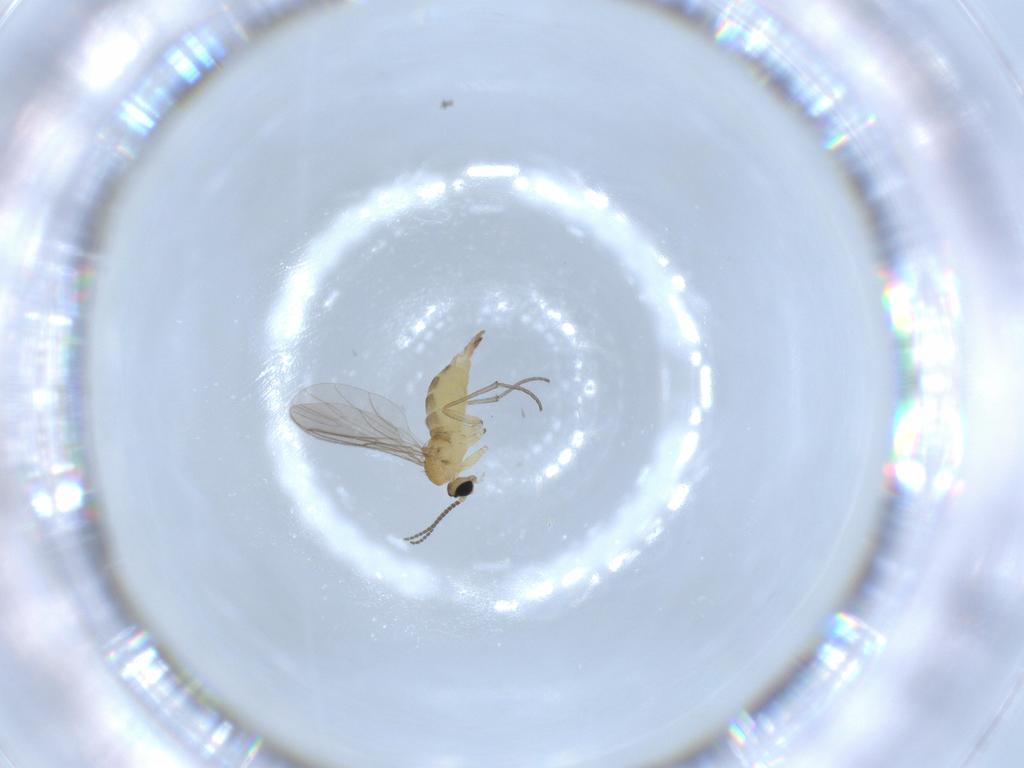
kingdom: Animalia
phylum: Arthropoda
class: Insecta
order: Diptera
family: Sciaridae
